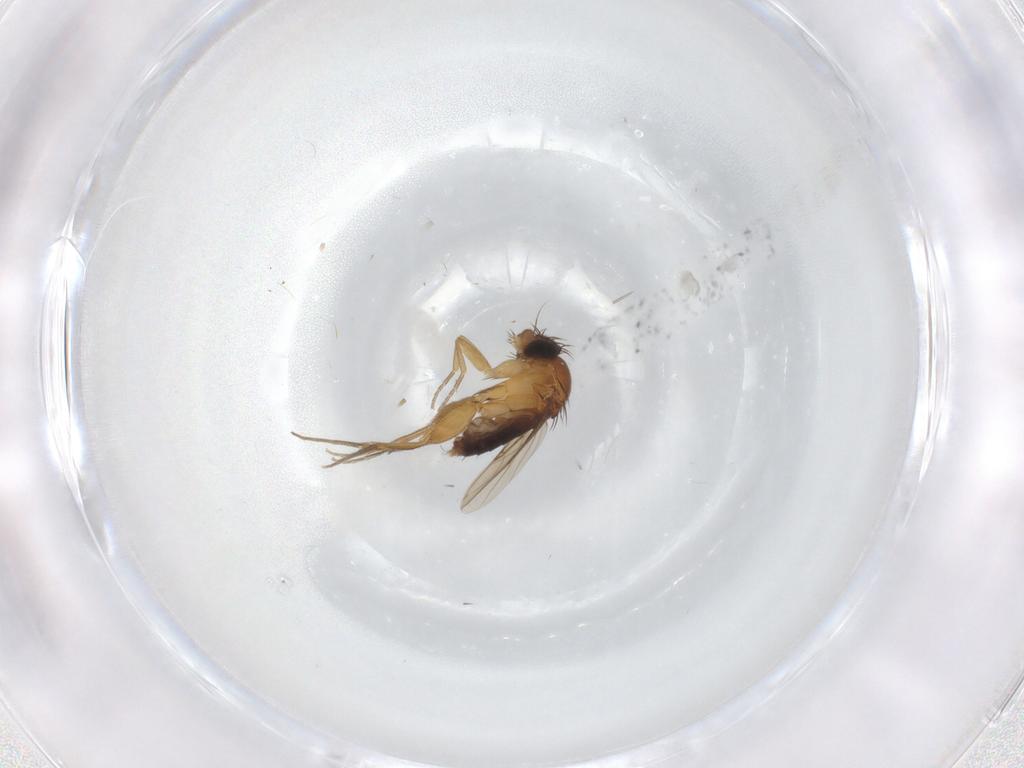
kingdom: Animalia
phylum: Arthropoda
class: Insecta
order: Diptera
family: Phoridae
